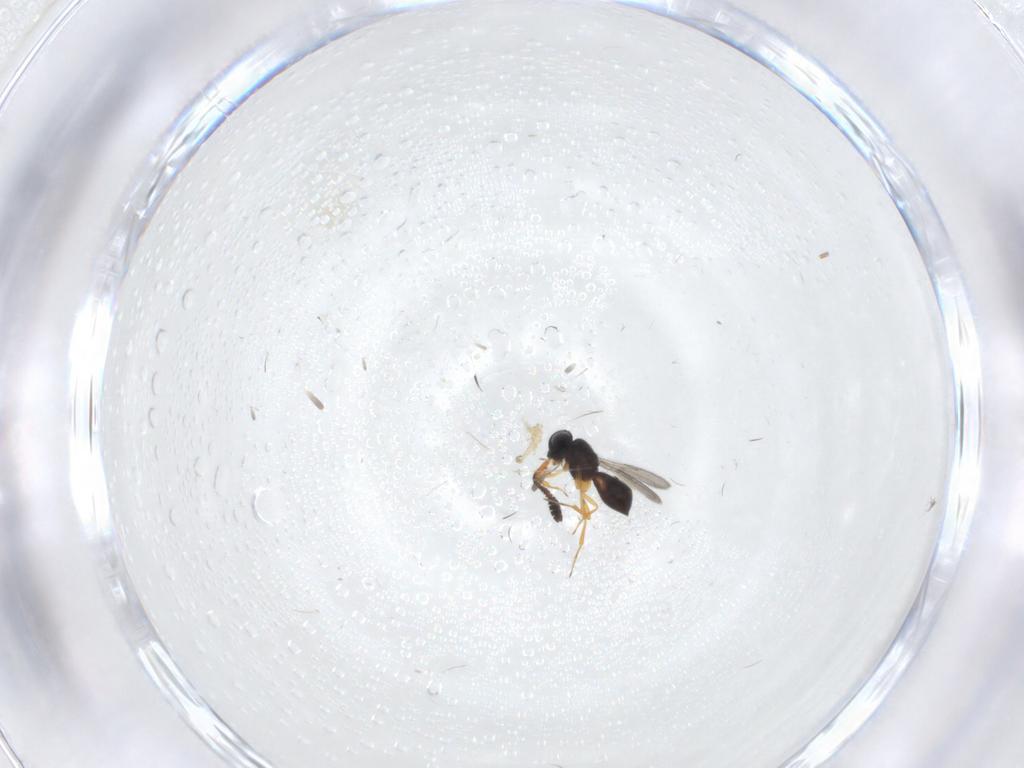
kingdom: Animalia
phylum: Arthropoda
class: Insecta
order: Hymenoptera
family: Scelionidae
